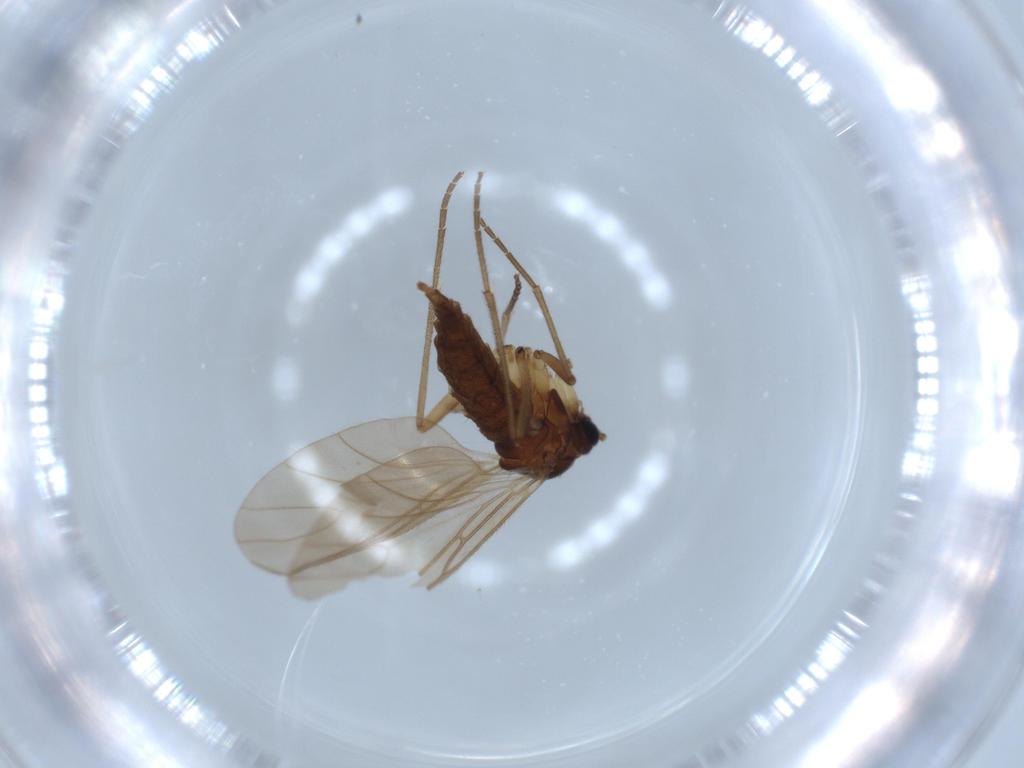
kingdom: Animalia
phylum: Arthropoda
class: Insecta
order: Diptera
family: Sciaridae
